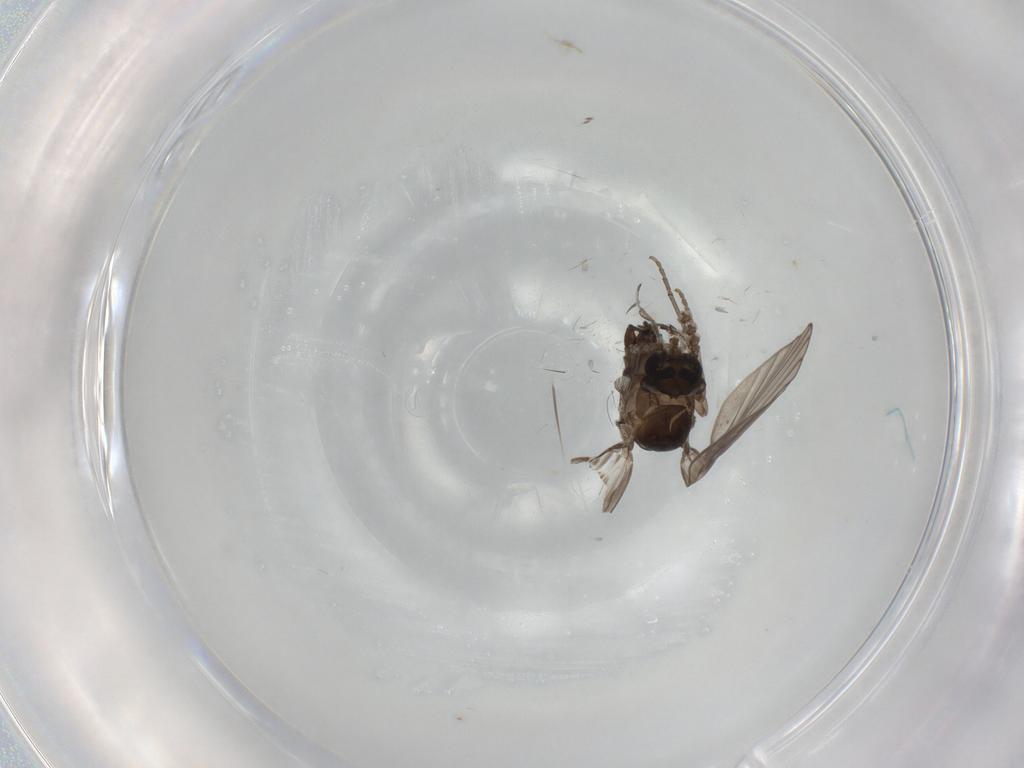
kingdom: Animalia
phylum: Arthropoda
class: Insecta
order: Diptera
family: Psychodidae
